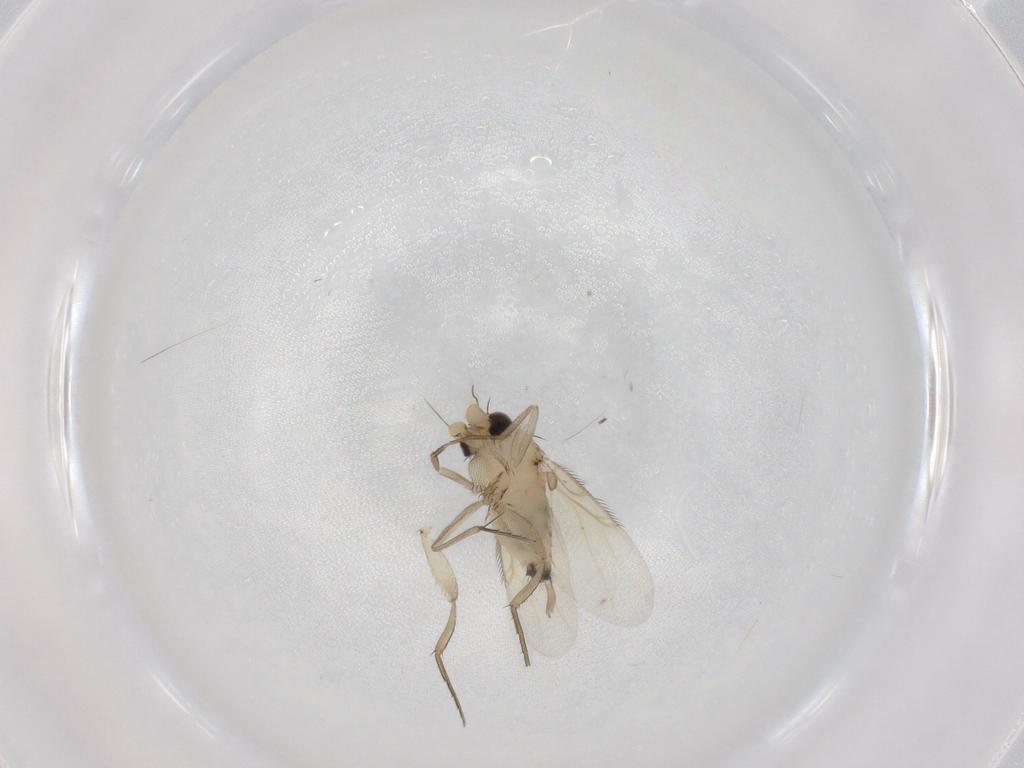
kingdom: Animalia
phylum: Arthropoda
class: Insecta
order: Diptera
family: Phoridae
